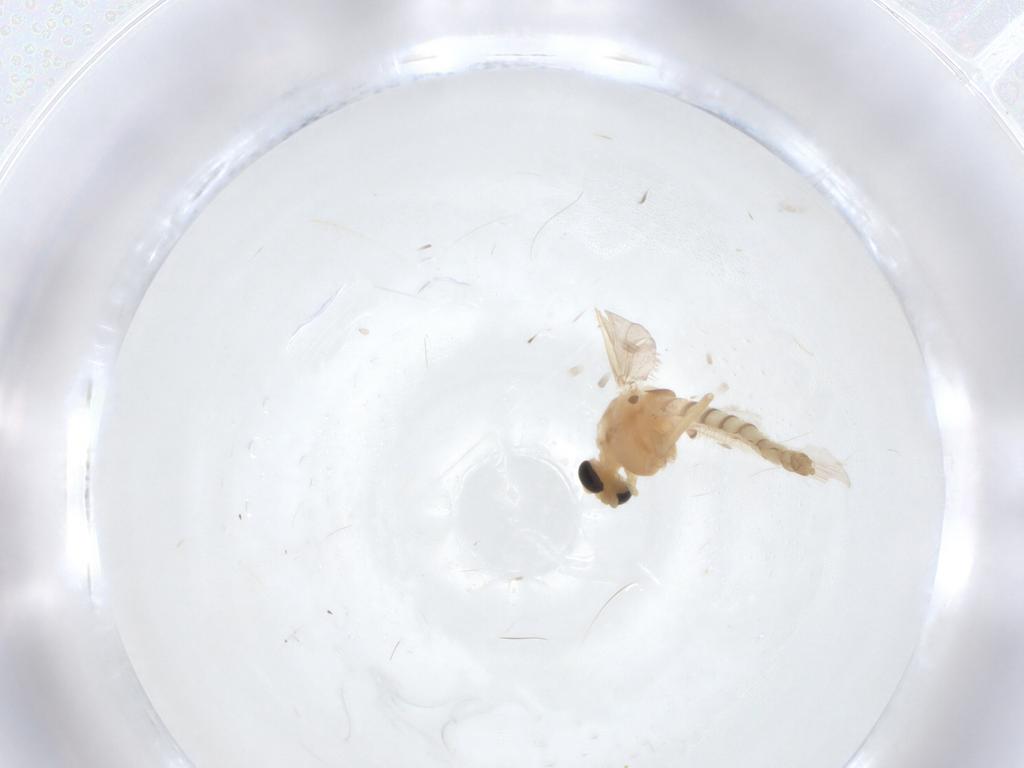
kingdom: Animalia
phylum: Arthropoda
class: Insecta
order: Diptera
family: Chironomidae
